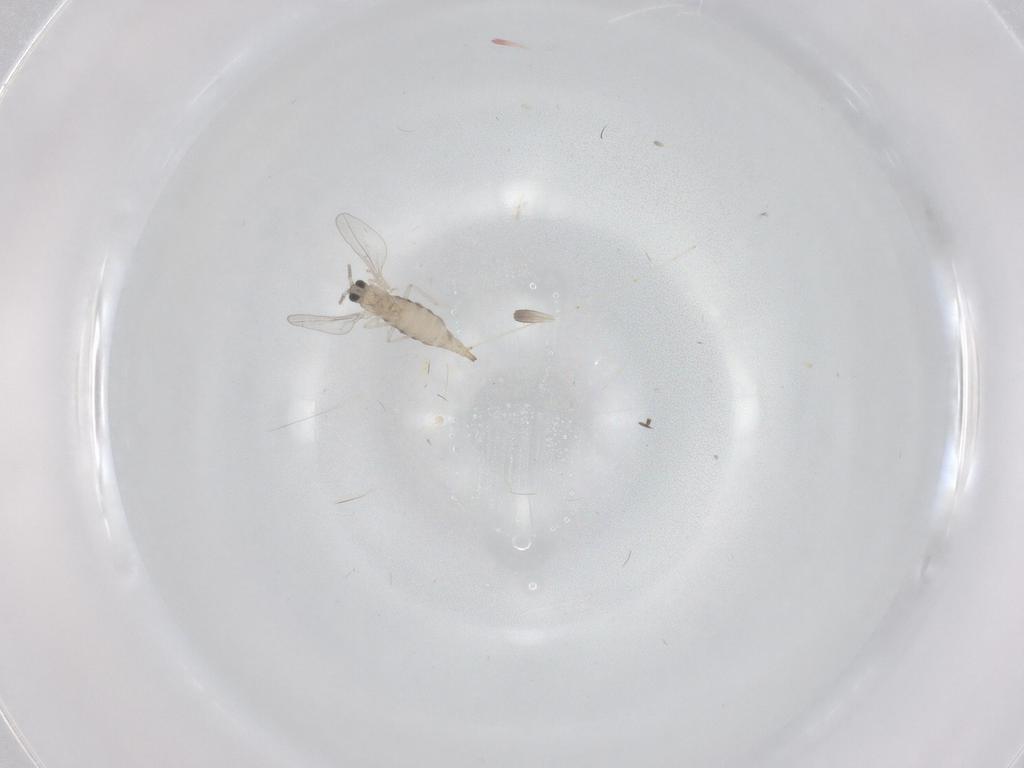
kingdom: Animalia
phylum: Arthropoda
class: Insecta
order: Diptera
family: Cecidomyiidae
